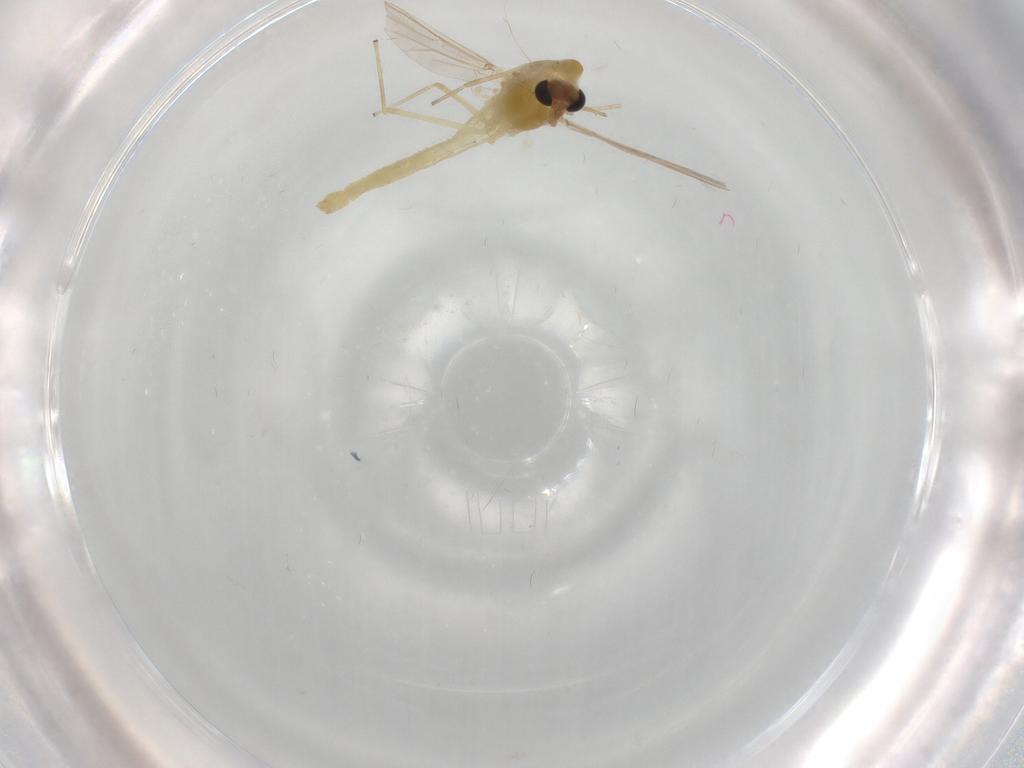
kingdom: Animalia
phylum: Arthropoda
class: Insecta
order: Diptera
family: Chironomidae
